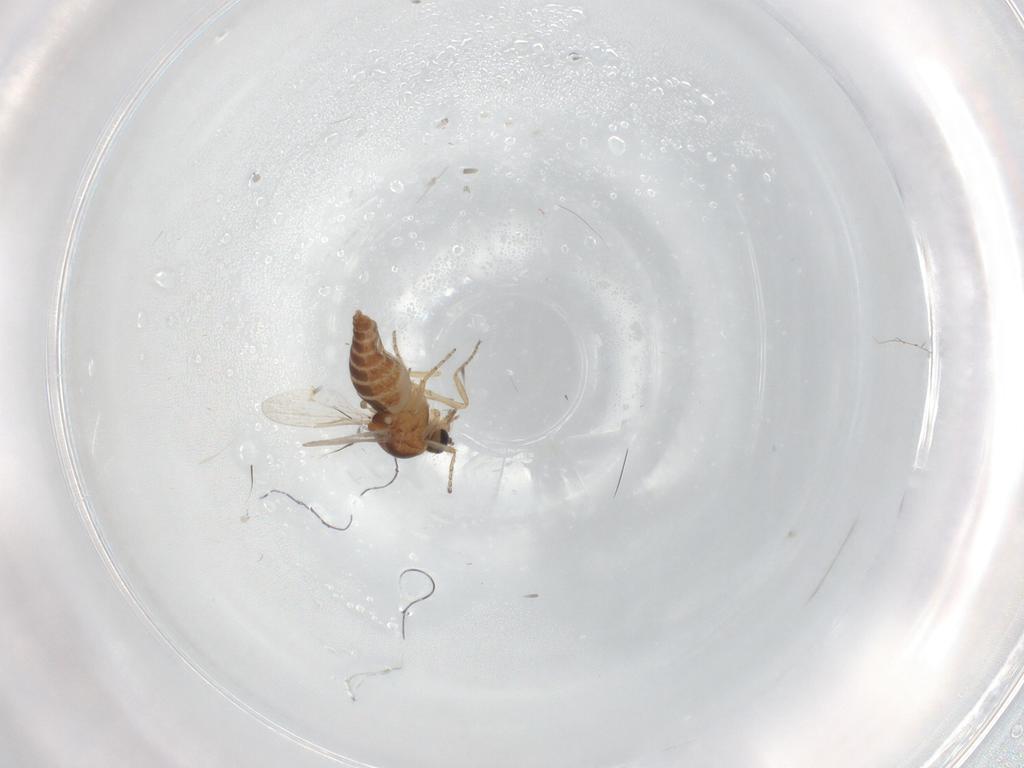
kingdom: Animalia
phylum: Arthropoda
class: Insecta
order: Diptera
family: Ceratopogonidae
